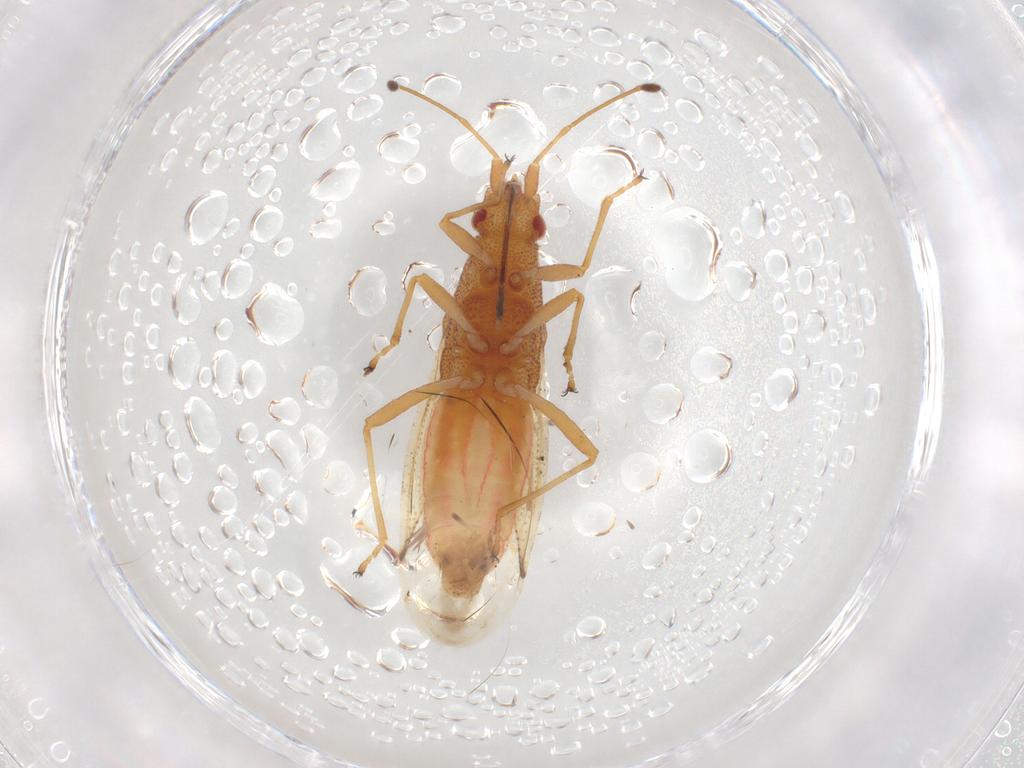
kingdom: Animalia
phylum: Arthropoda
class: Insecta
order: Hemiptera
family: Cymidae
